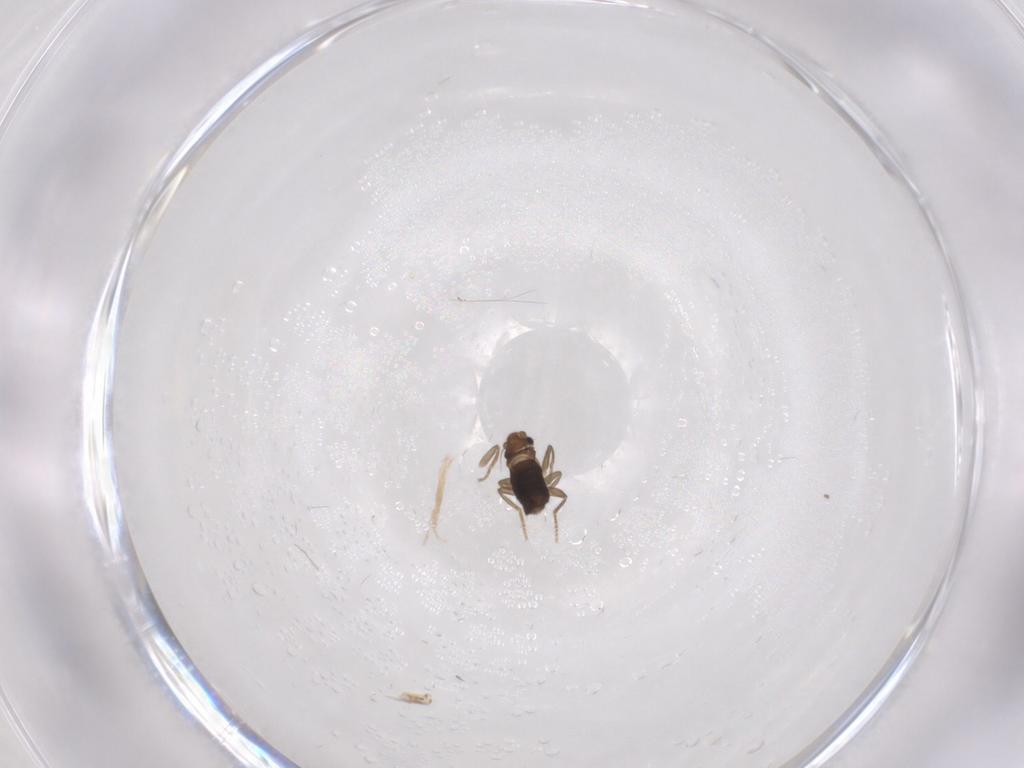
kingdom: Animalia
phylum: Arthropoda
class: Insecta
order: Diptera
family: Phoridae
